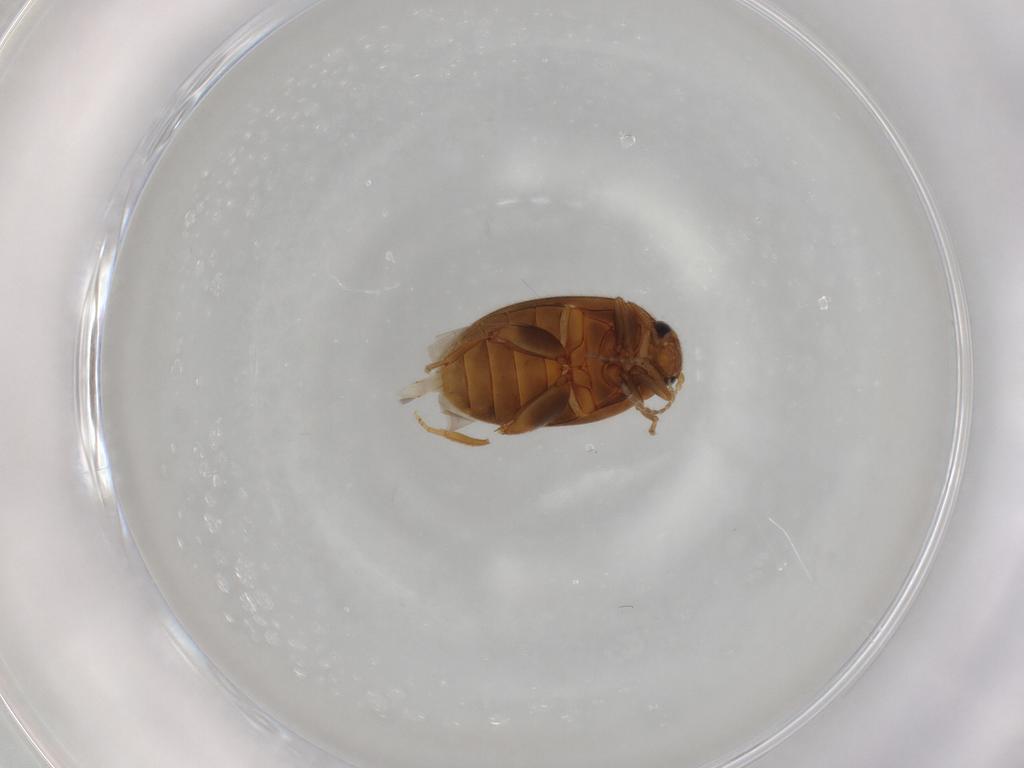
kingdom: Animalia
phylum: Arthropoda
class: Insecta
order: Coleoptera
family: Scirtidae
